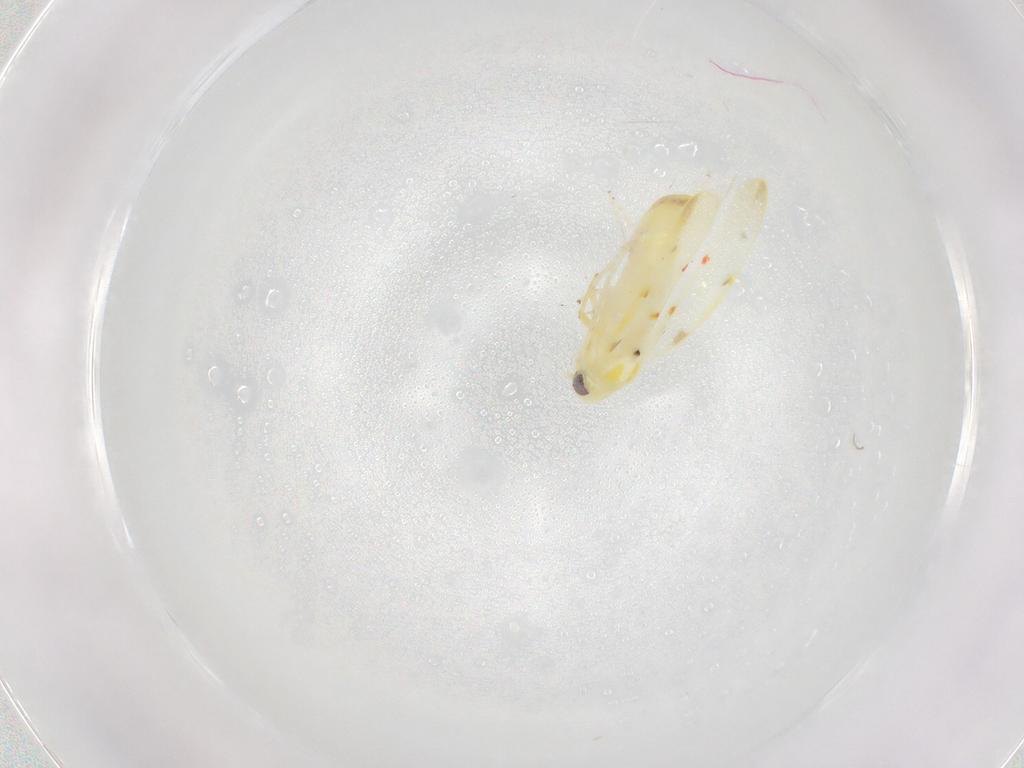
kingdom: Animalia
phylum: Arthropoda
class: Insecta
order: Hemiptera
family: Cicadellidae
